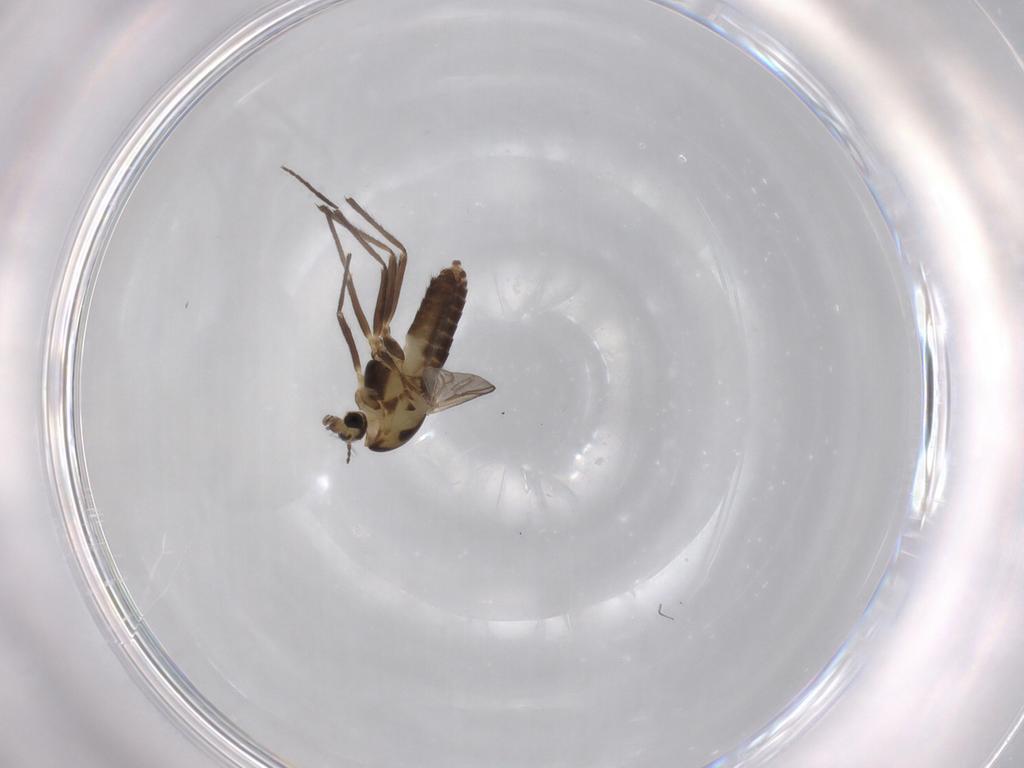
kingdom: Animalia
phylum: Arthropoda
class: Insecta
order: Diptera
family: Chironomidae
